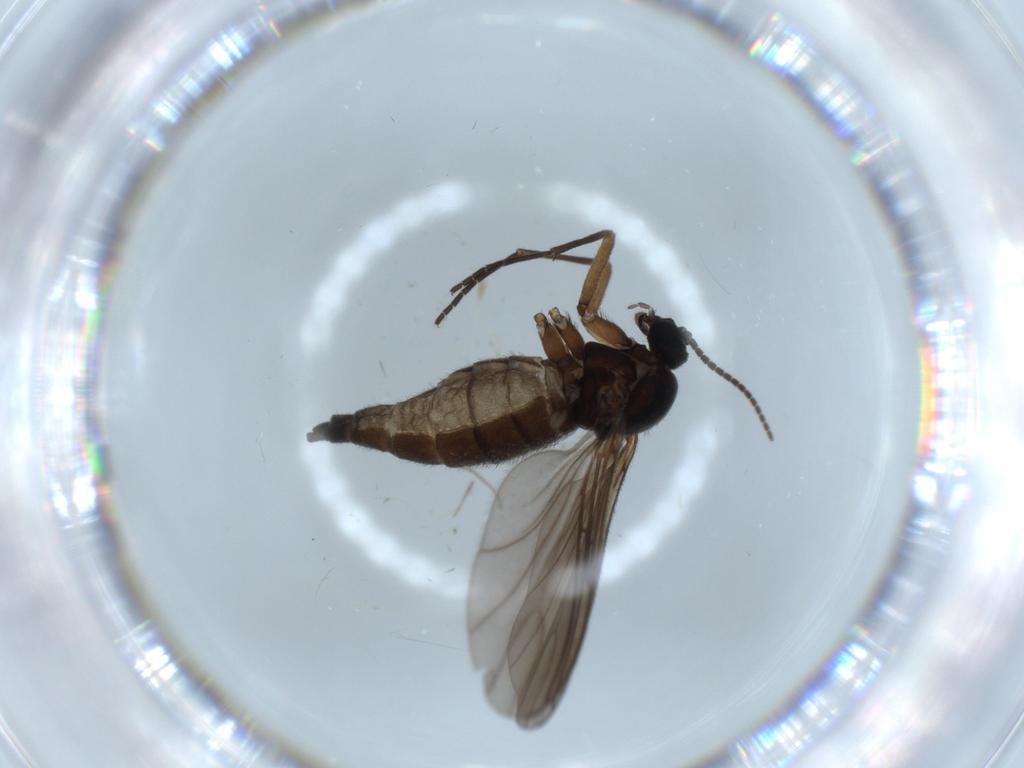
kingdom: Animalia
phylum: Arthropoda
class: Insecta
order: Diptera
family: Sciaridae
